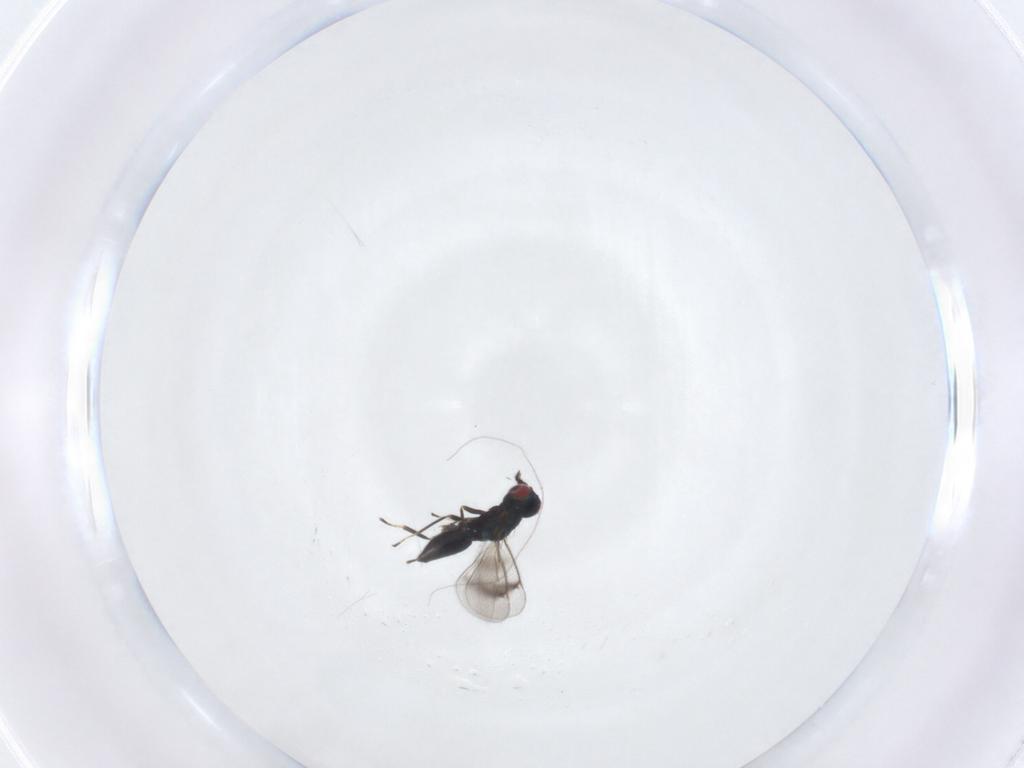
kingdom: Animalia
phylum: Arthropoda
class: Insecta
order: Hymenoptera
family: Eulophidae
